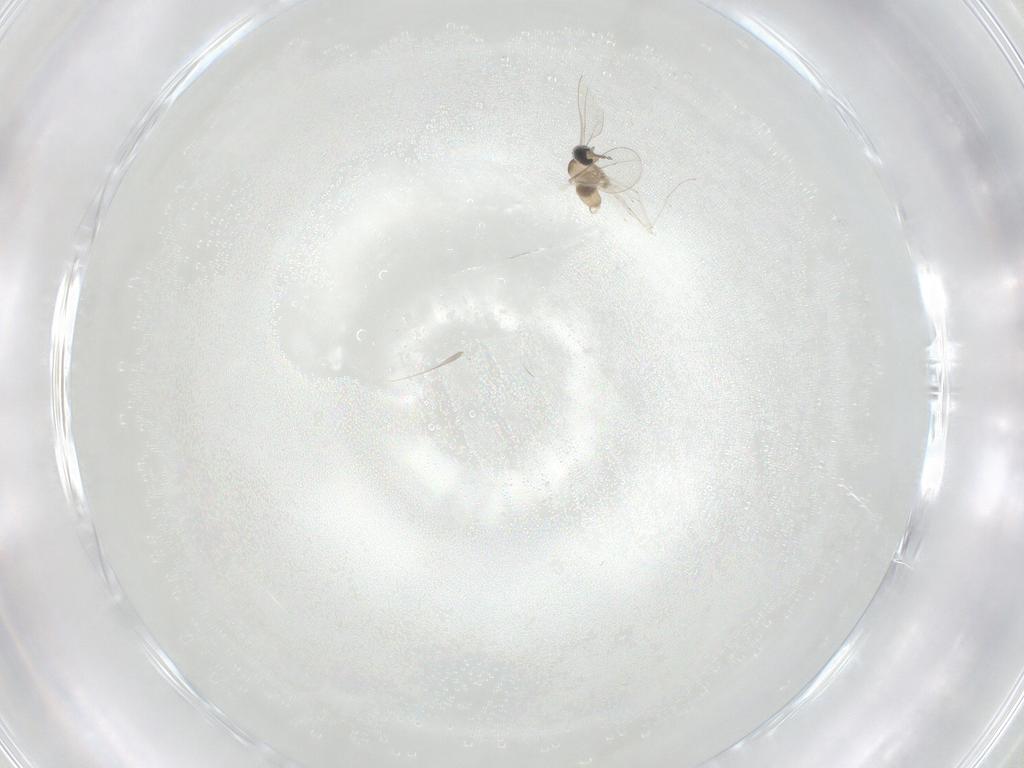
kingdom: Animalia
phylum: Arthropoda
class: Insecta
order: Diptera
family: Cecidomyiidae
